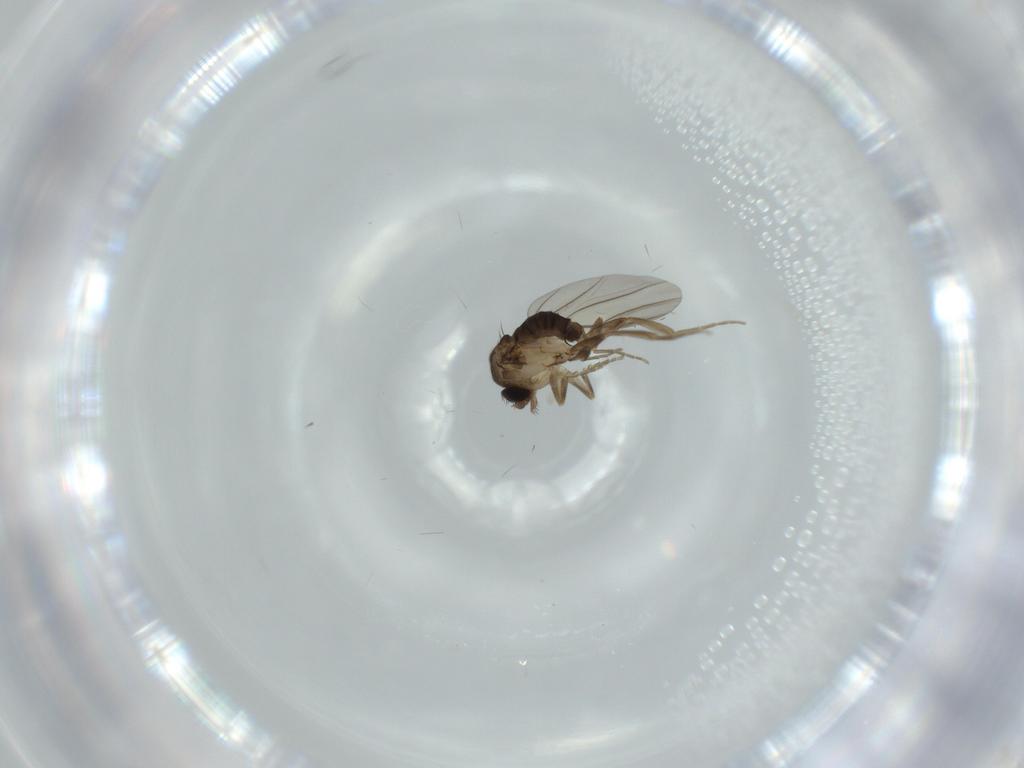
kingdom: Animalia
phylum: Arthropoda
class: Insecta
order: Diptera
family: Phoridae
